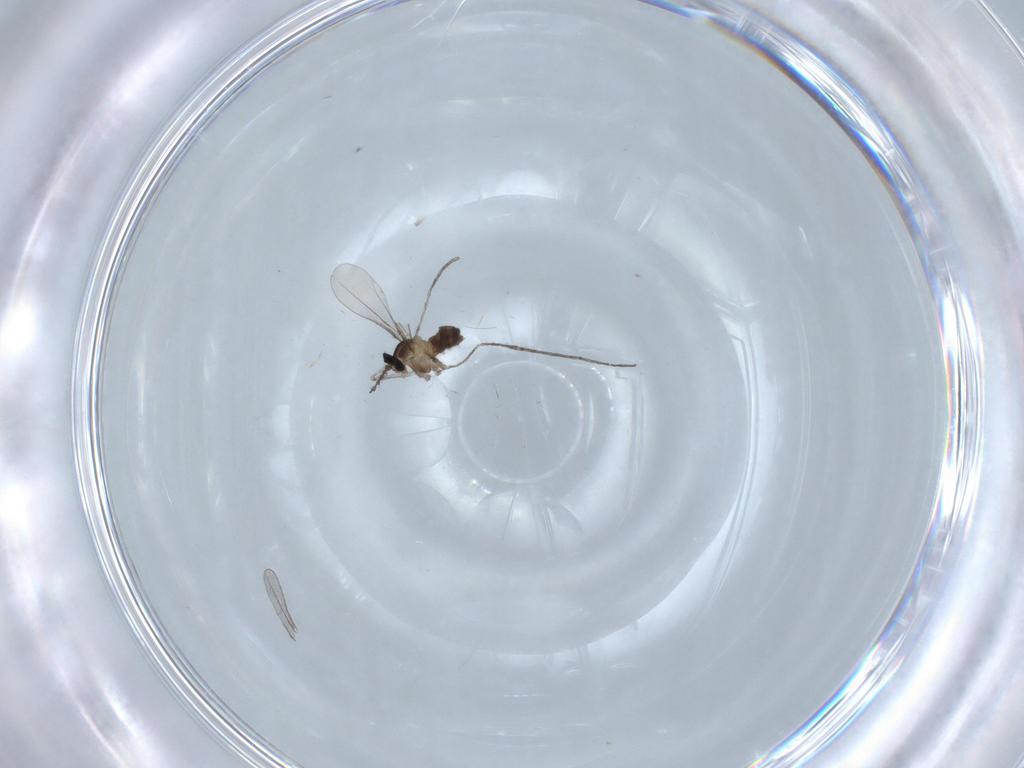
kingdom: Animalia
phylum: Arthropoda
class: Insecta
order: Diptera
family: Cecidomyiidae
